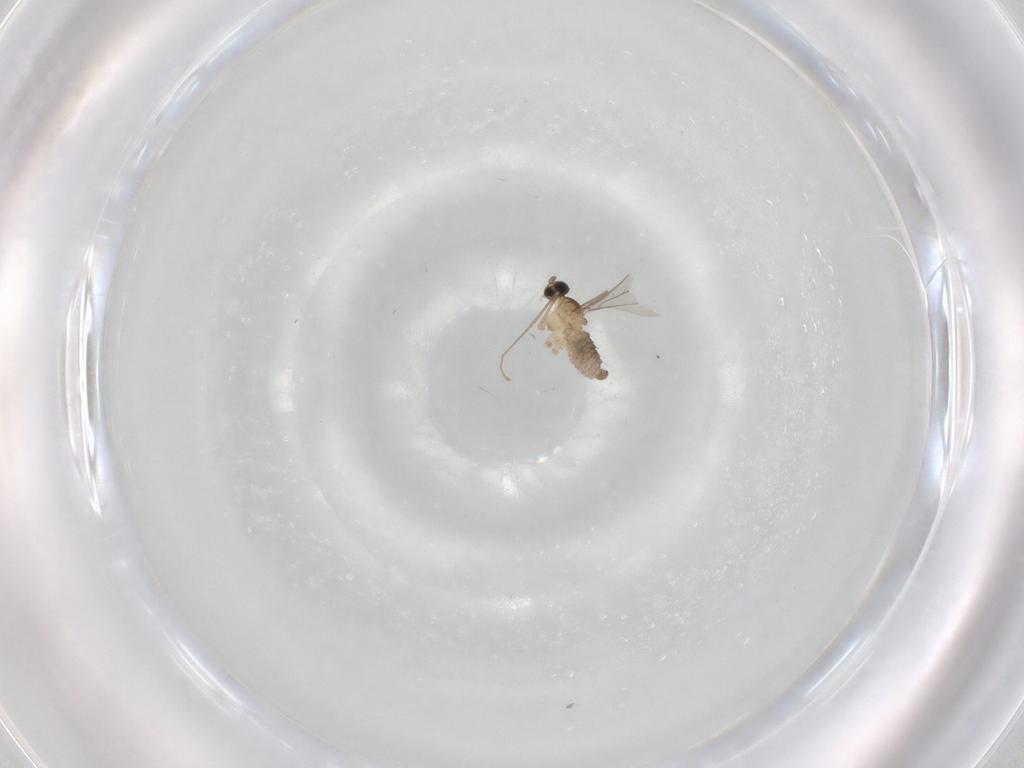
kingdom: Animalia
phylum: Arthropoda
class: Insecta
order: Diptera
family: Cecidomyiidae
